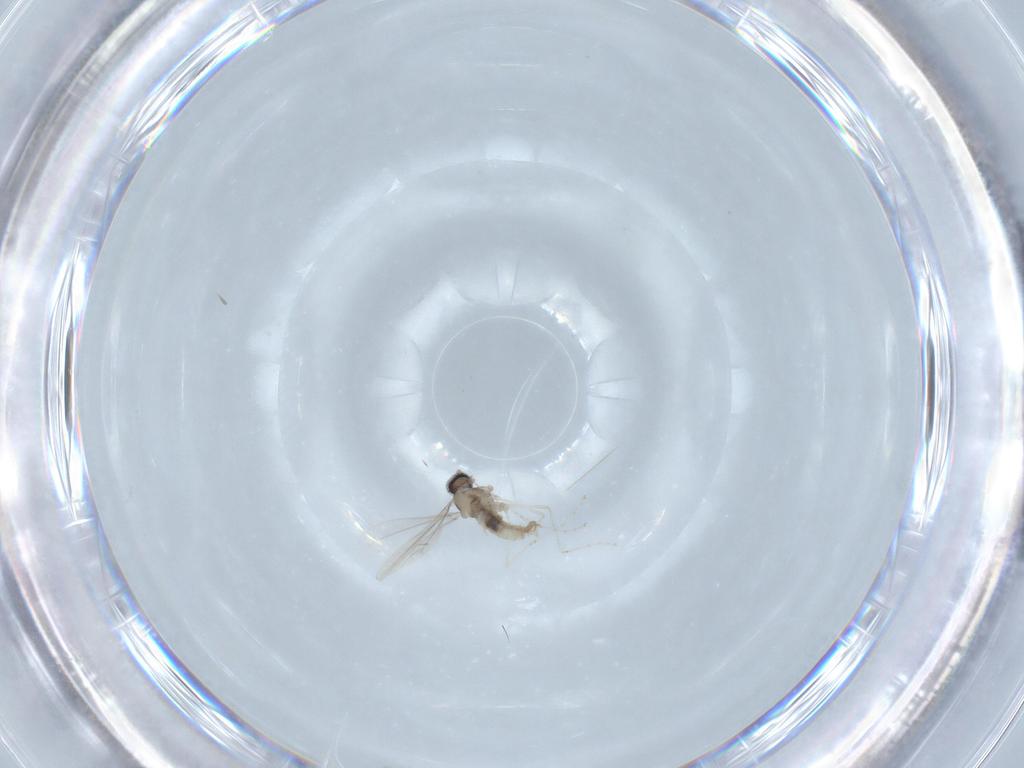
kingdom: Animalia
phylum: Arthropoda
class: Insecta
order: Diptera
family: Cecidomyiidae
